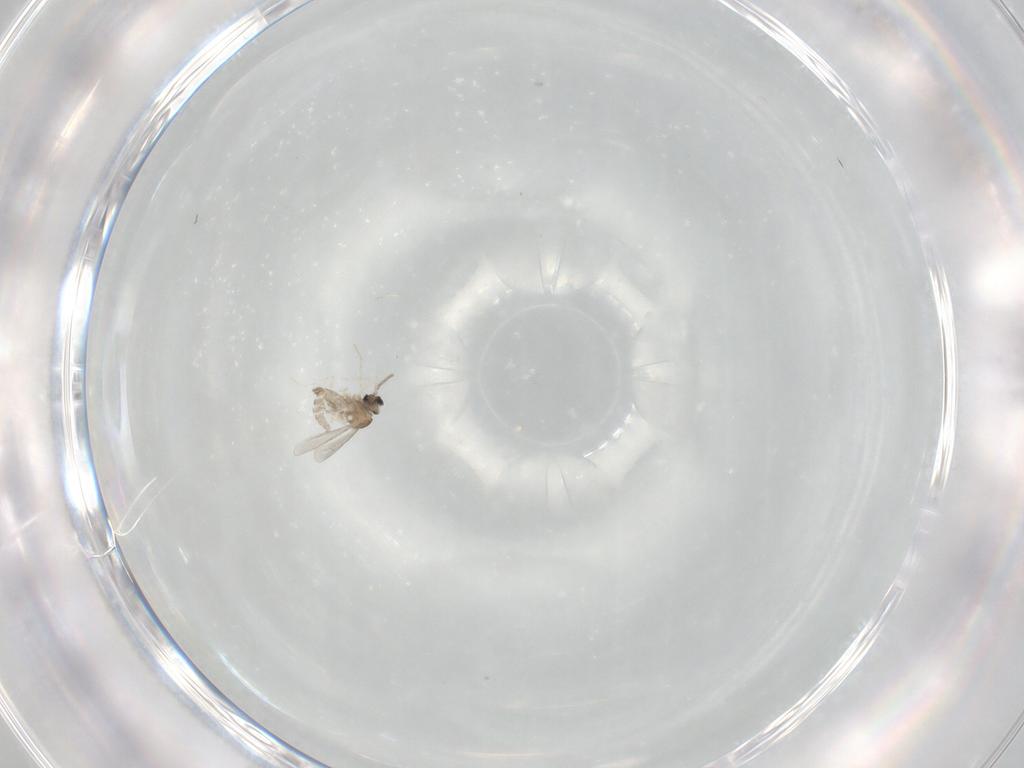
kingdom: Animalia
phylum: Arthropoda
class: Insecta
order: Diptera
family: Cecidomyiidae
